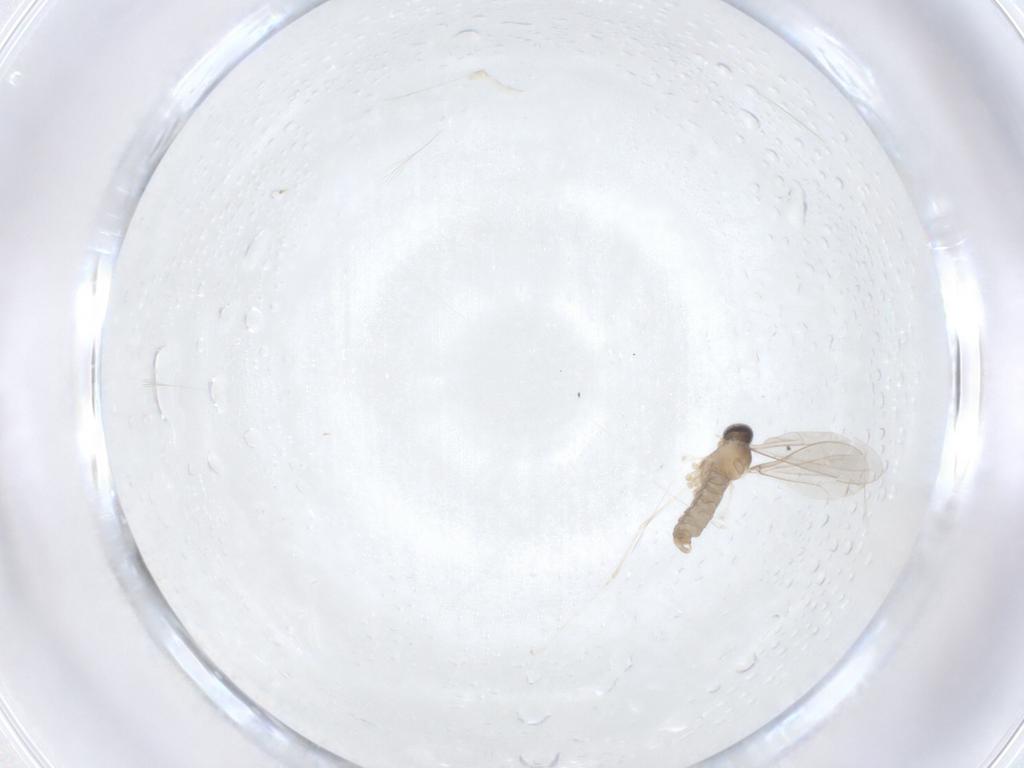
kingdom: Animalia
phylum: Arthropoda
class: Insecta
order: Diptera
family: Cecidomyiidae
